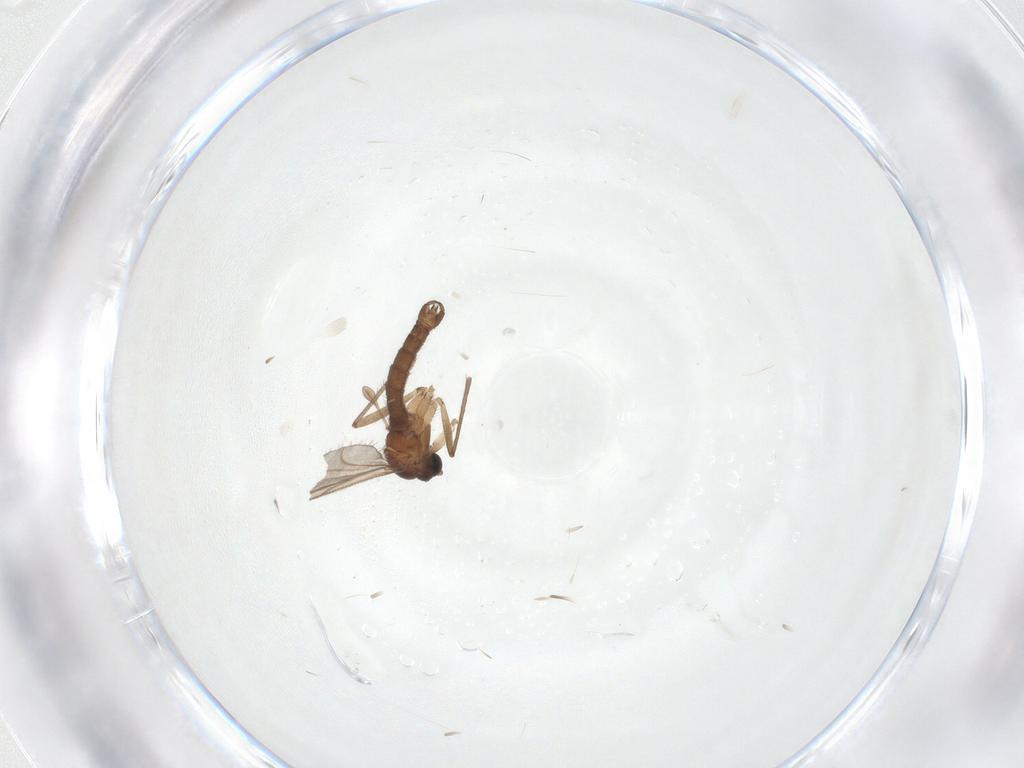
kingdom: Animalia
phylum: Arthropoda
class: Insecta
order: Diptera
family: Sciaridae
